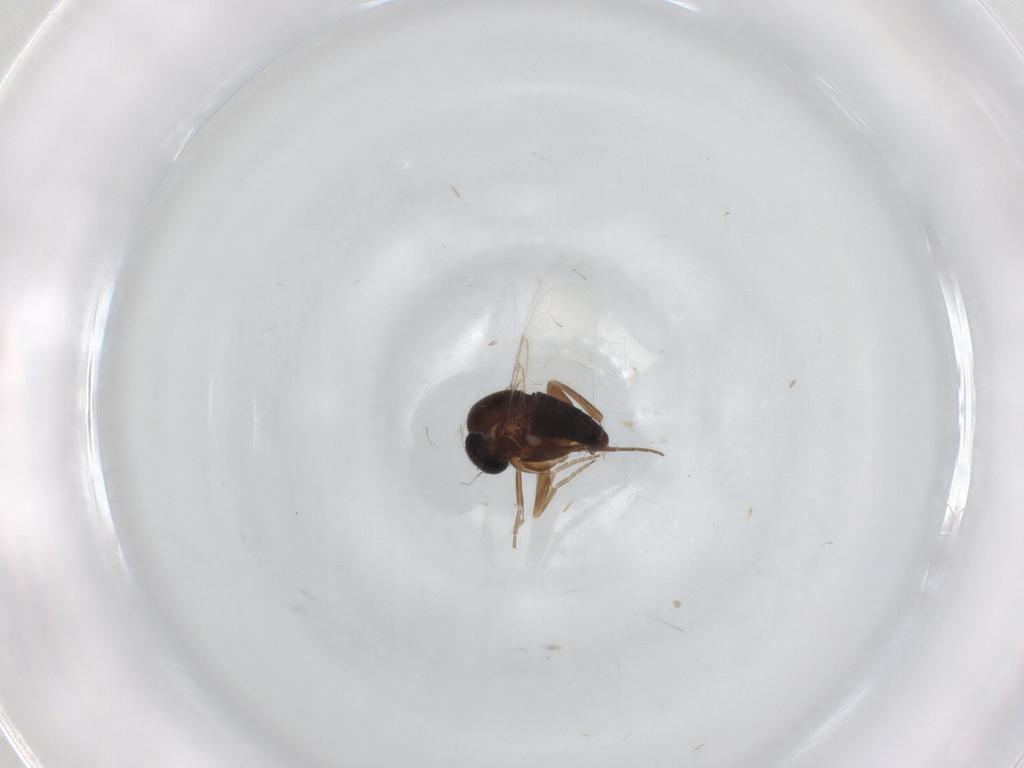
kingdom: Animalia
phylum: Arthropoda
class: Insecta
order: Diptera
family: Phoridae
